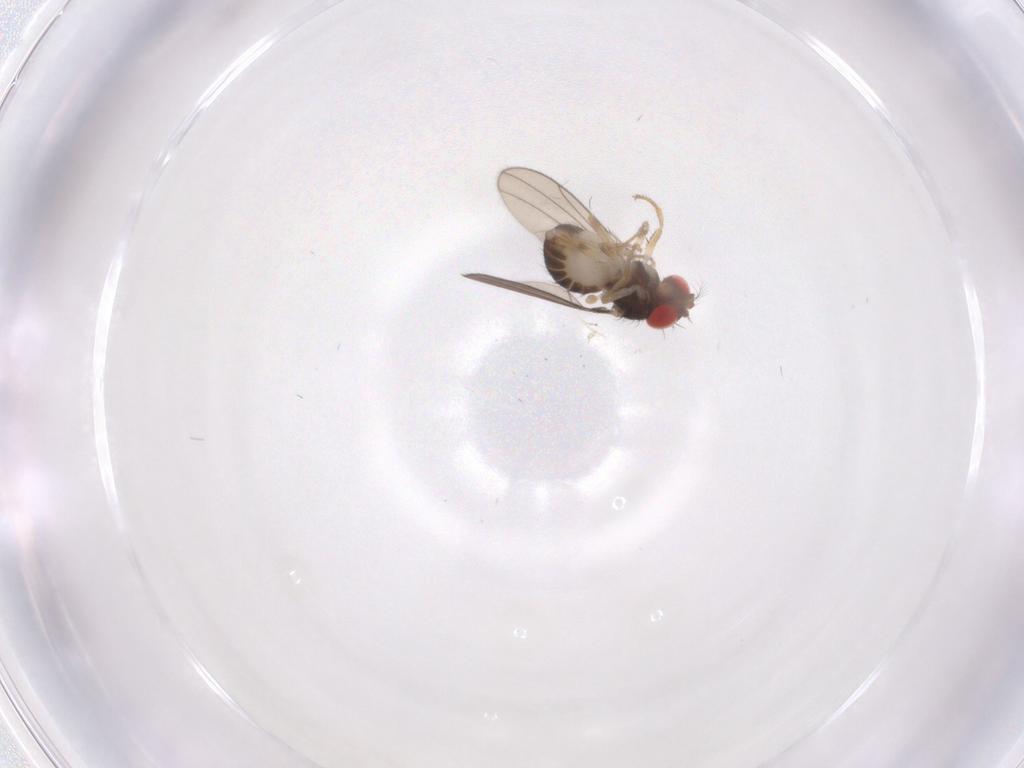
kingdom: Animalia
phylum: Arthropoda
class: Insecta
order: Diptera
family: Drosophilidae
